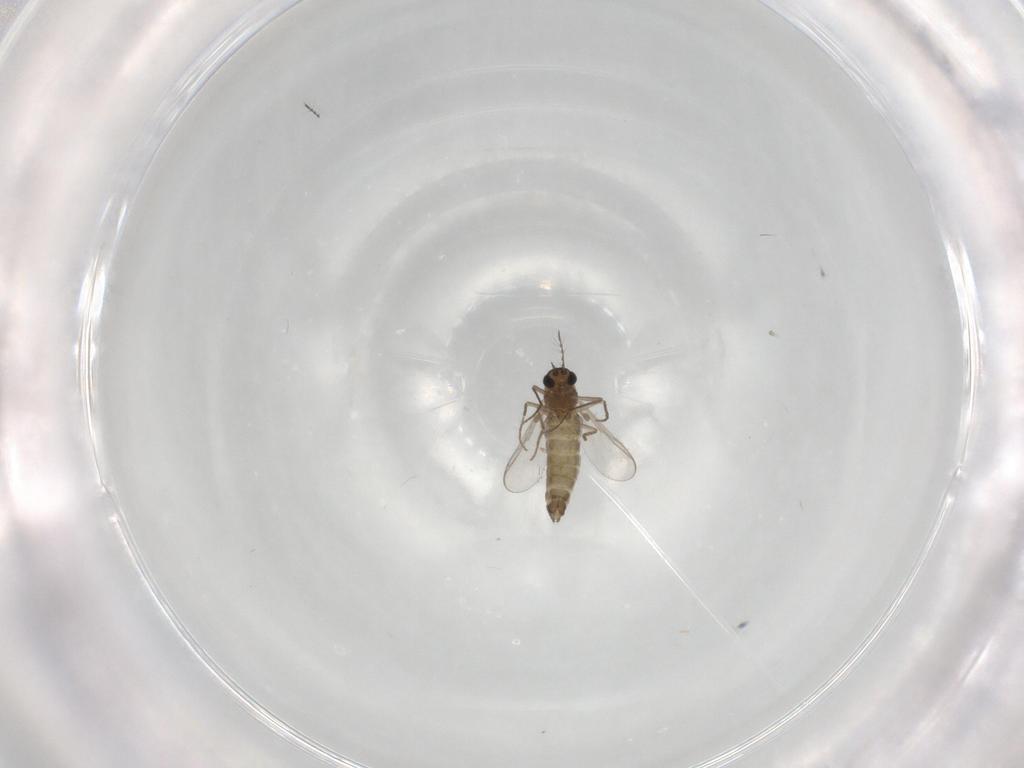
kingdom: Animalia
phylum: Arthropoda
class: Insecta
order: Diptera
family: Chironomidae
